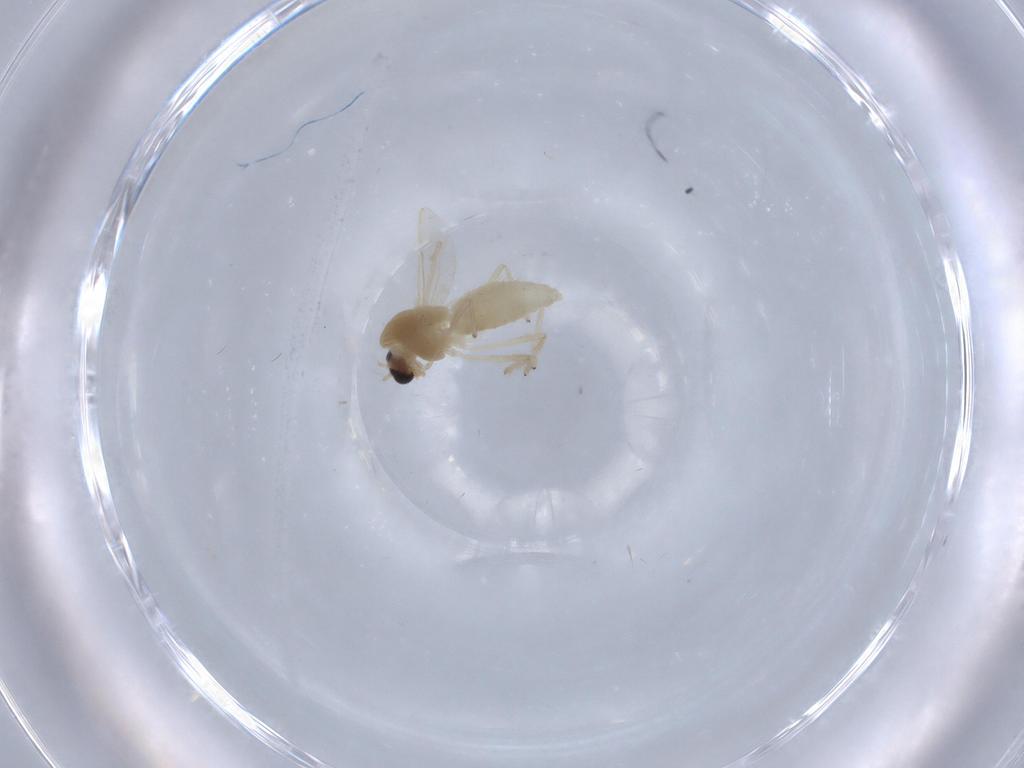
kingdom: Animalia
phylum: Arthropoda
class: Insecta
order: Diptera
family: Chironomidae
